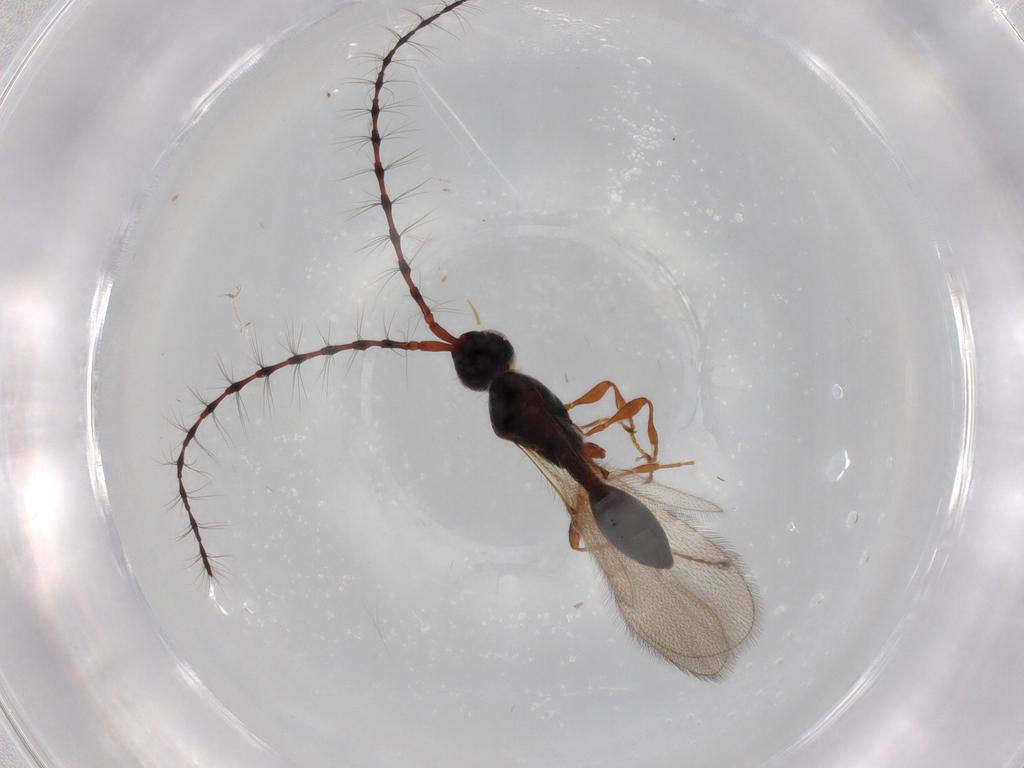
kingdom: Animalia
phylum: Arthropoda
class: Insecta
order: Hymenoptera
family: Diapriidae
